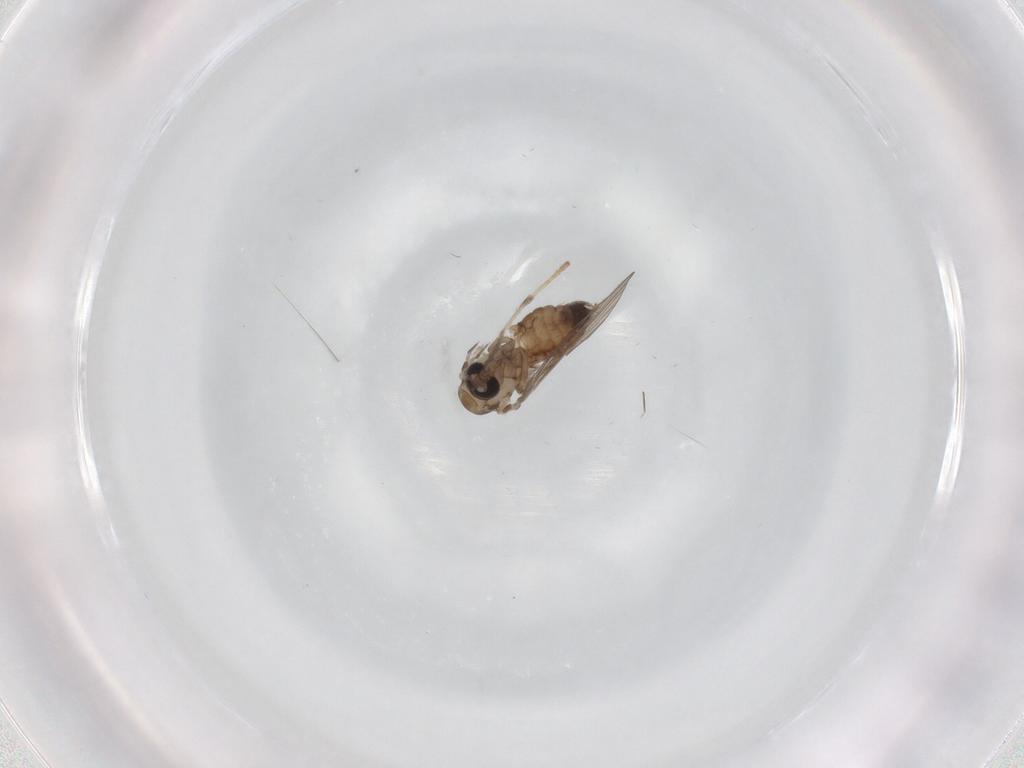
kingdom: Animalia
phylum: Arthropoda
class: Insecta
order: Diptera
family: Psychodidae
